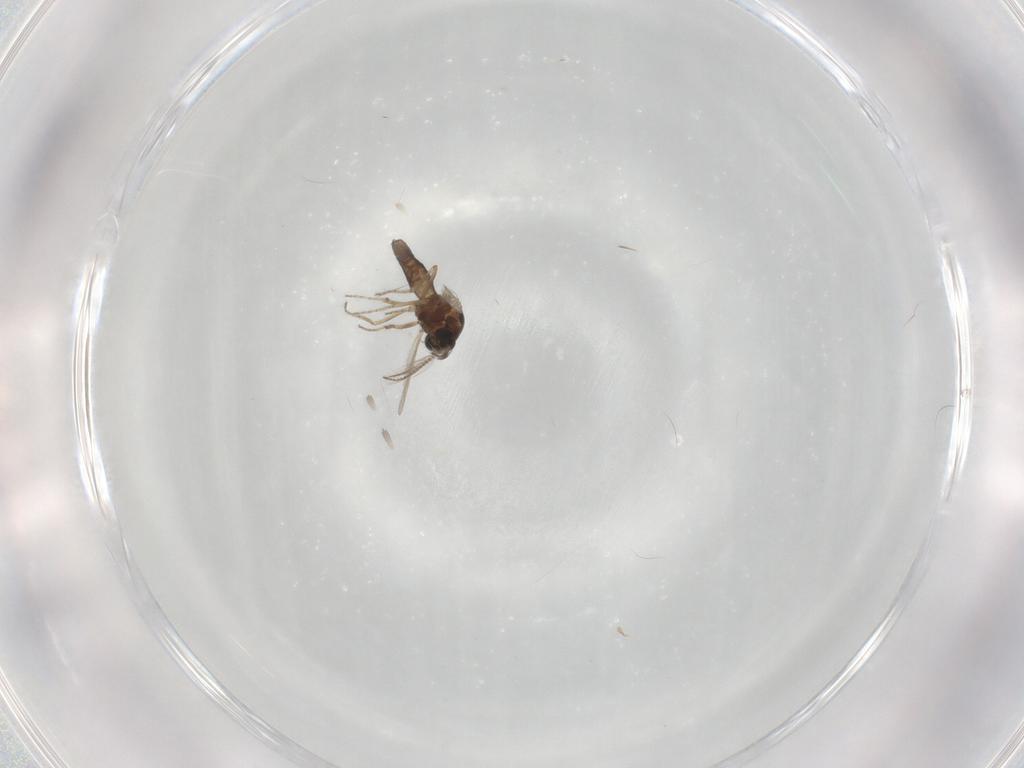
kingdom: Animalia
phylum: Arthropoda
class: Insecta
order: Diptera
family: Ceratopogonidae
